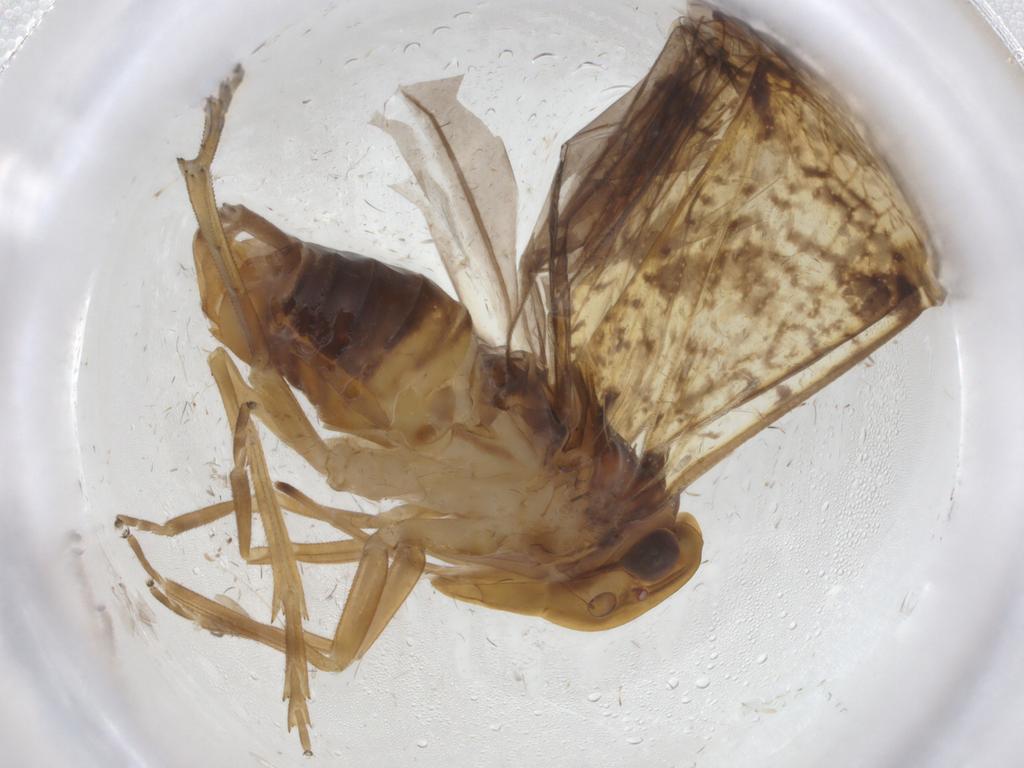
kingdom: Animalia
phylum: Arthropoda
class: Insecta
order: Hemiptera
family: Cixiidae
